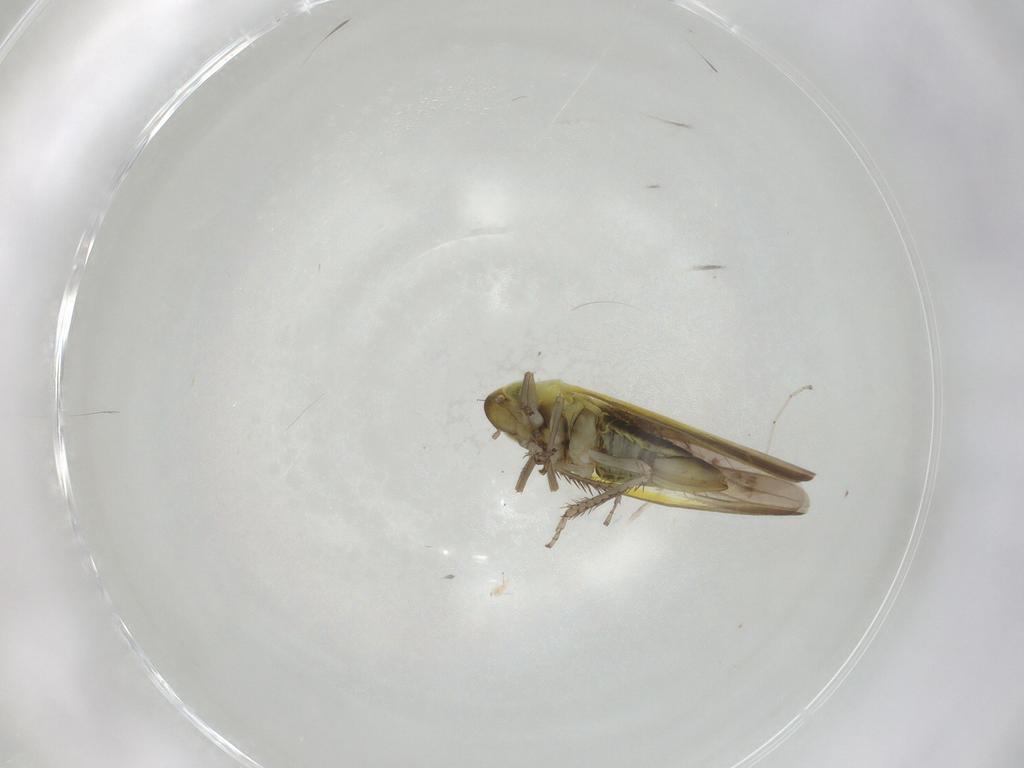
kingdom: Animalia
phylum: Arthropoda
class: Insecta
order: Hemiptera
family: Cicadellidae
